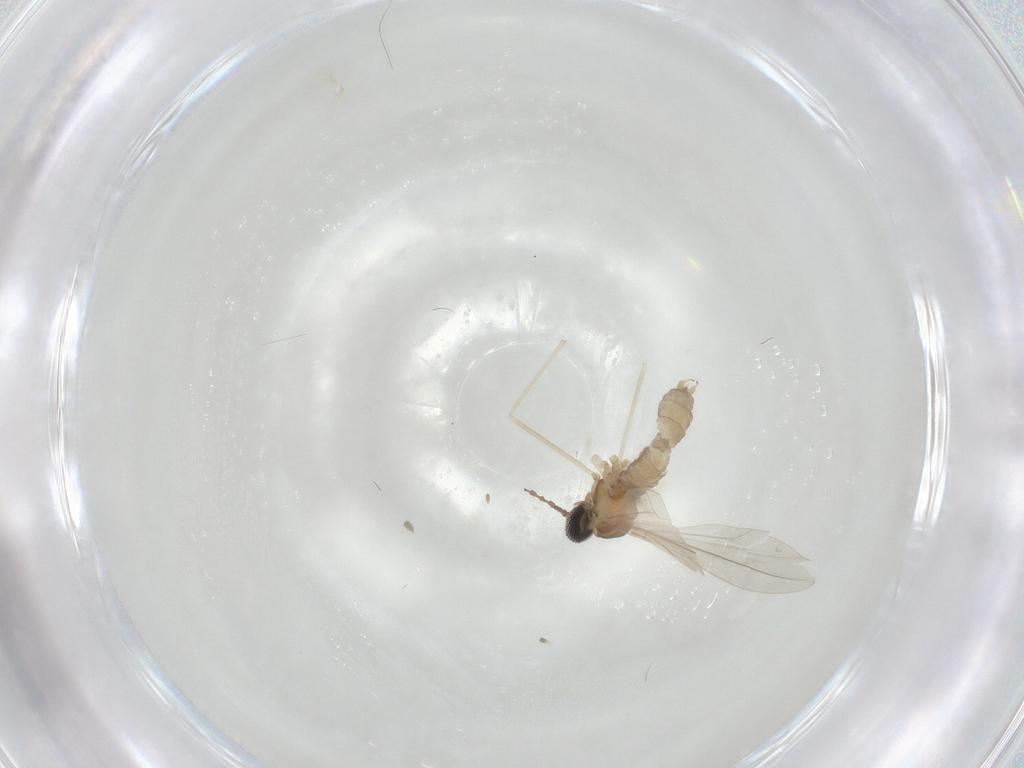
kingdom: Animalia
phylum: Arthropoda
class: Insecta
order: Diptera
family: Cecidomyiidae
